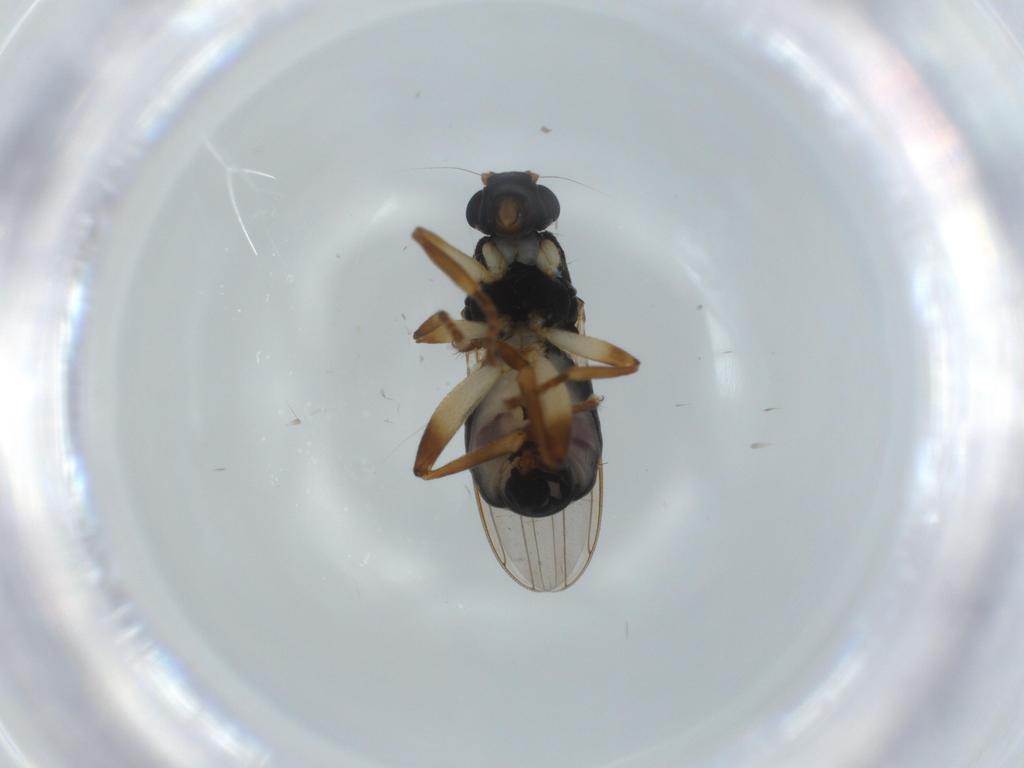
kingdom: Animalia
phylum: Arthropoda
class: Insecta
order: Diptera
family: Sphaeroceridae
